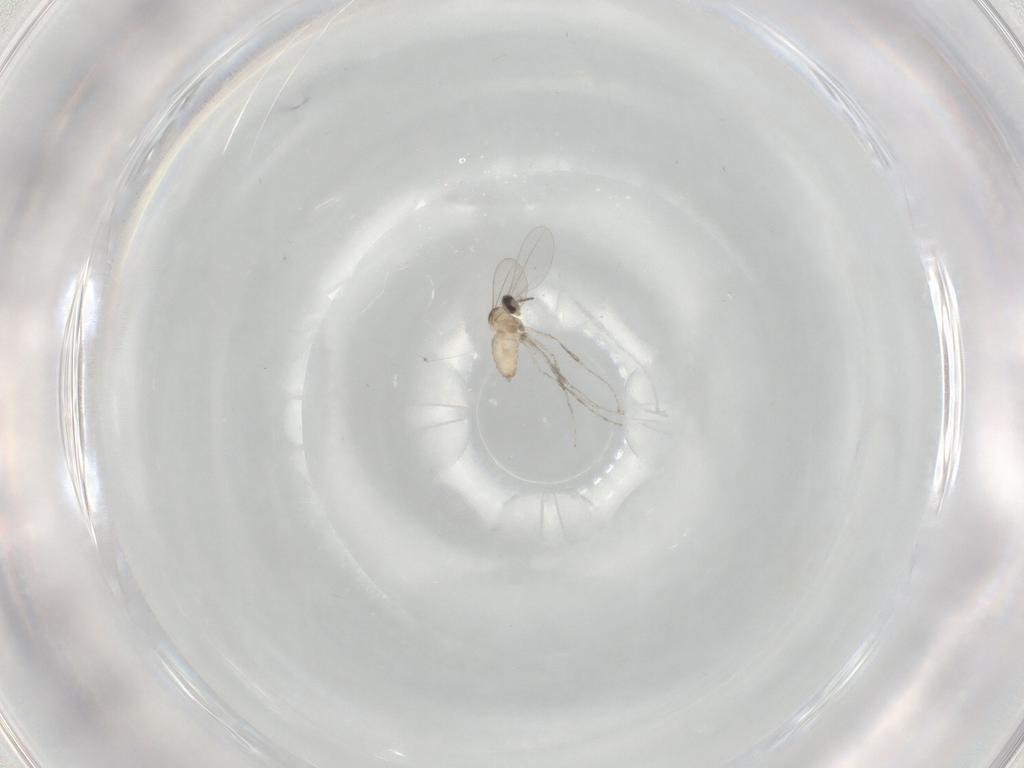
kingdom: Animalia
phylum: Arthropoda
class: Insecta
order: Diptera
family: Cecidomyiidae
